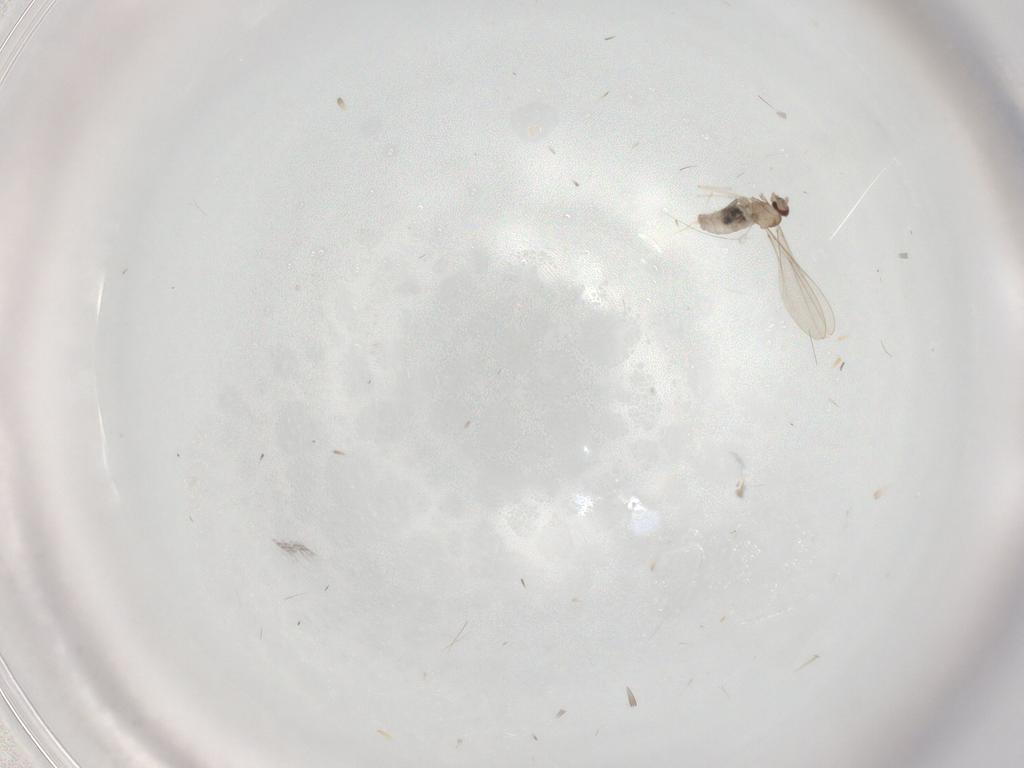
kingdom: Animalia
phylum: Arthropoda
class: Insecta
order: Diptera
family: Cecidomyiidae
